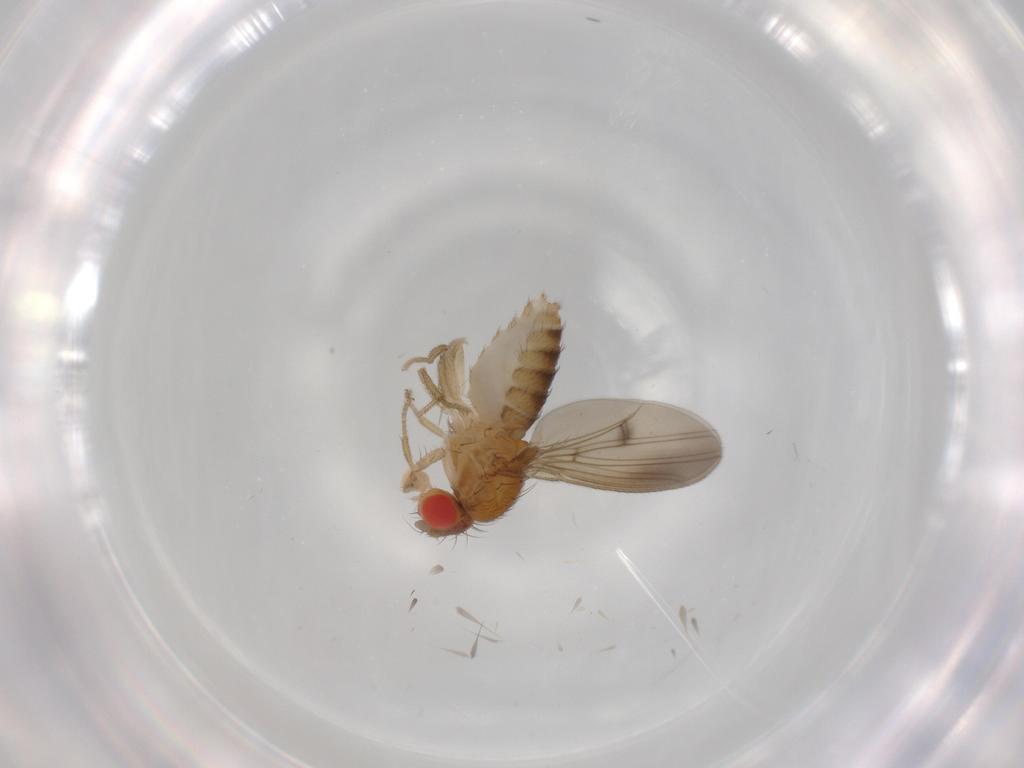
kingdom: Animalia
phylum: Arthropoda
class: Insecta
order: Diptera
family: Drosophilidae
